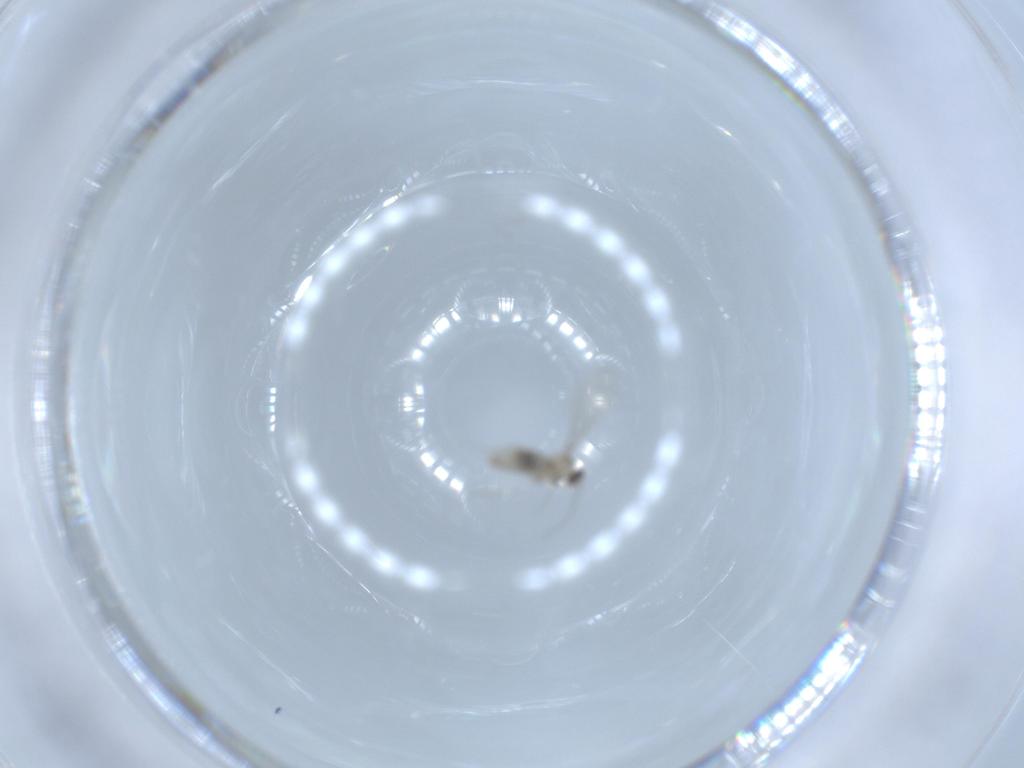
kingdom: Animalia
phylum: Arthropoda
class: Insecta
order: Diptera
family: Cecidomyiidae
